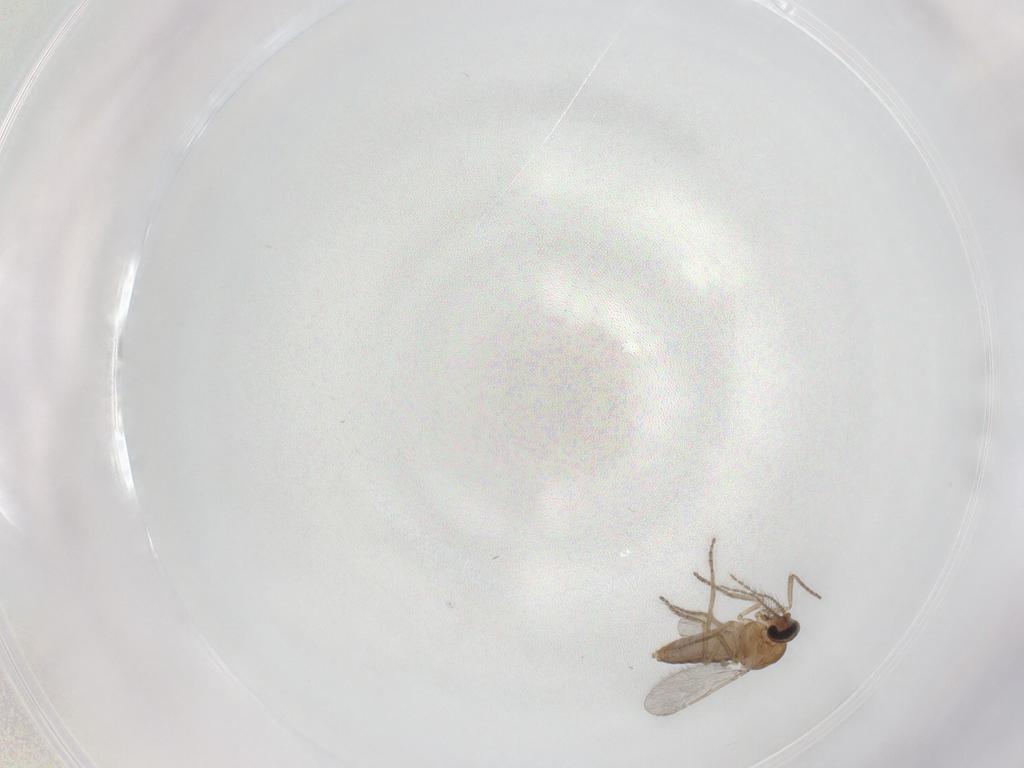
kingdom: Animalia
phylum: Arthropoda
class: Insecta
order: Diptera
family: Ceratopogonidae
